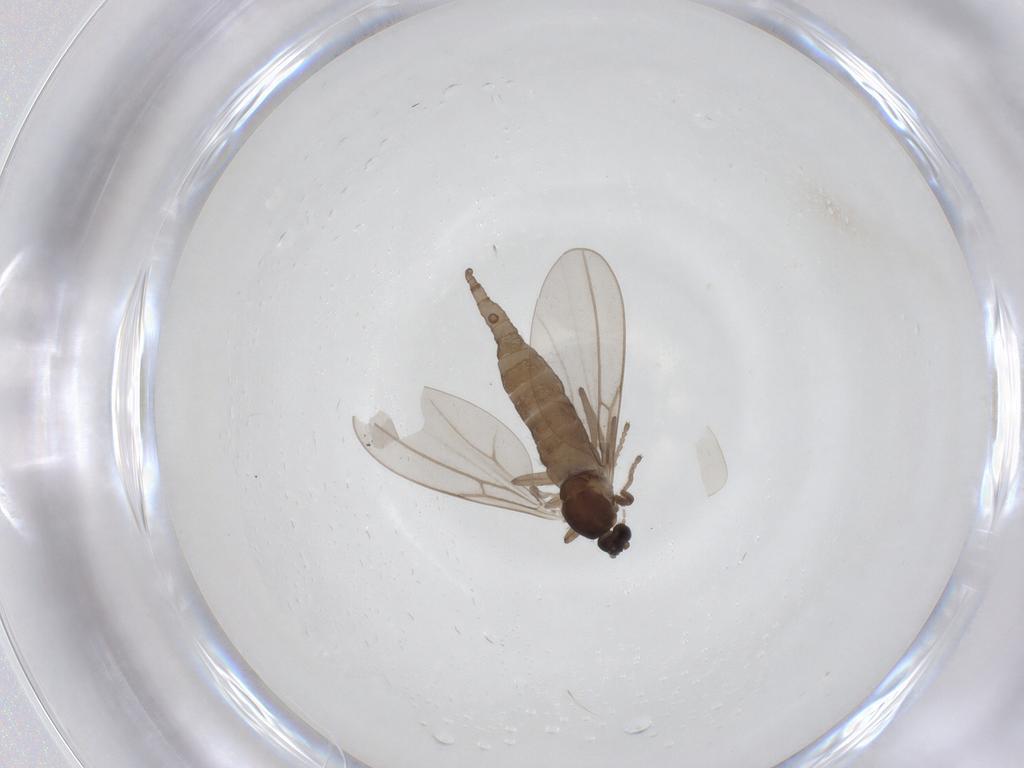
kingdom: Animalia
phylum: Arthropoda
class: Insecta
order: Diptera
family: Cecidomyiidae
